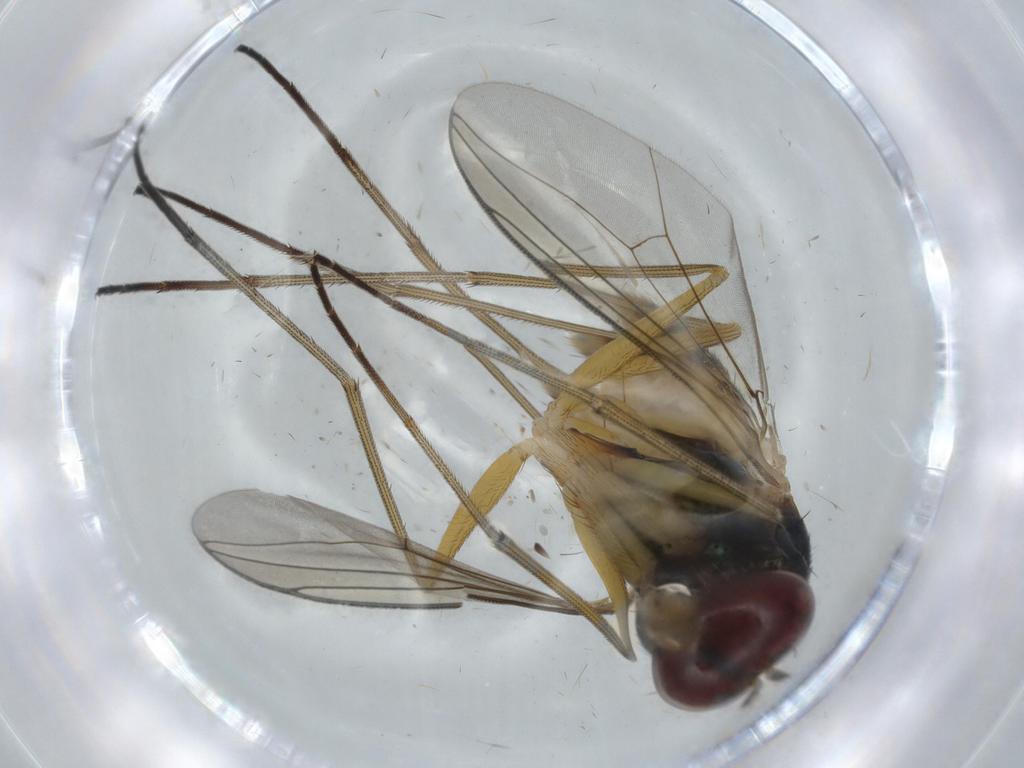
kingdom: Animalia
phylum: Arthropoda
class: Insecta
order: Diptera
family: Dolichopodidae
